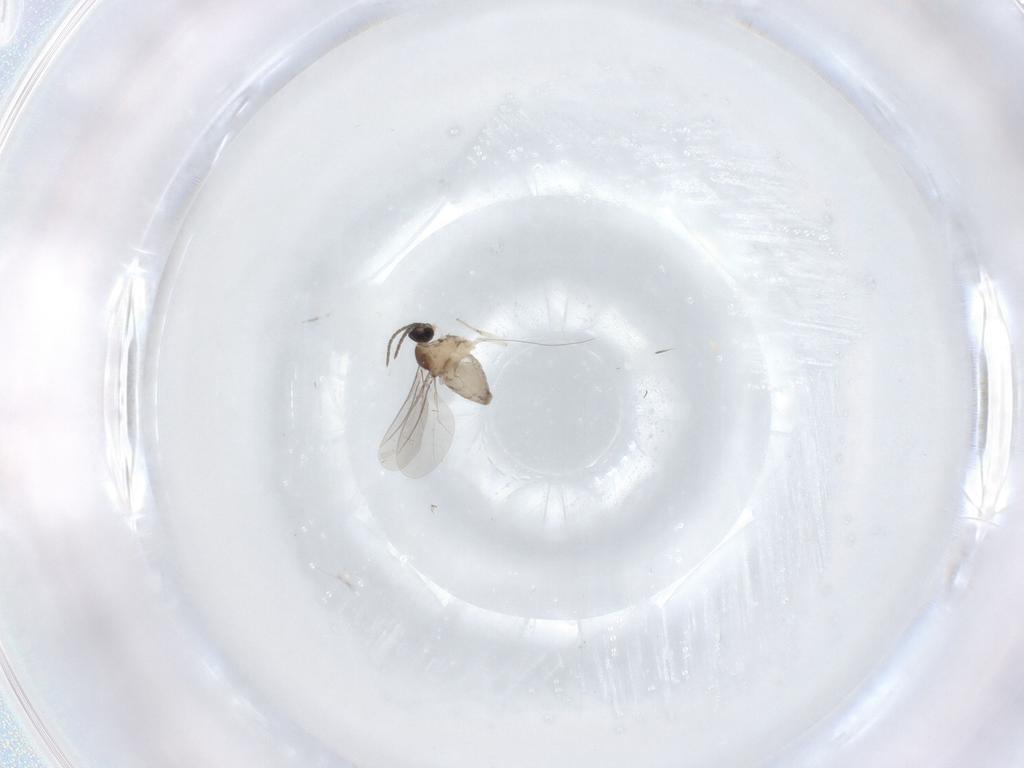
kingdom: Animalia
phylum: Arthropoda
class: Insecta
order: Diptera
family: Cecidomyiidae
